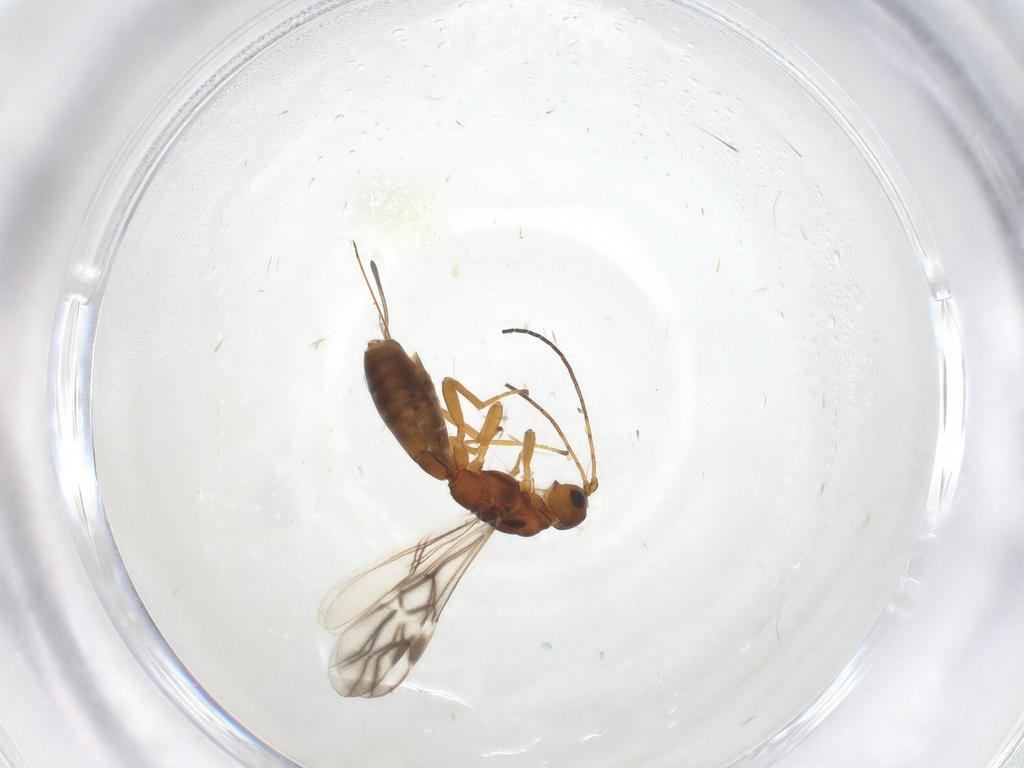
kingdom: Animalia
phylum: Arthropoda
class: Insecta
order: Hymenoptera
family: Braconidae
